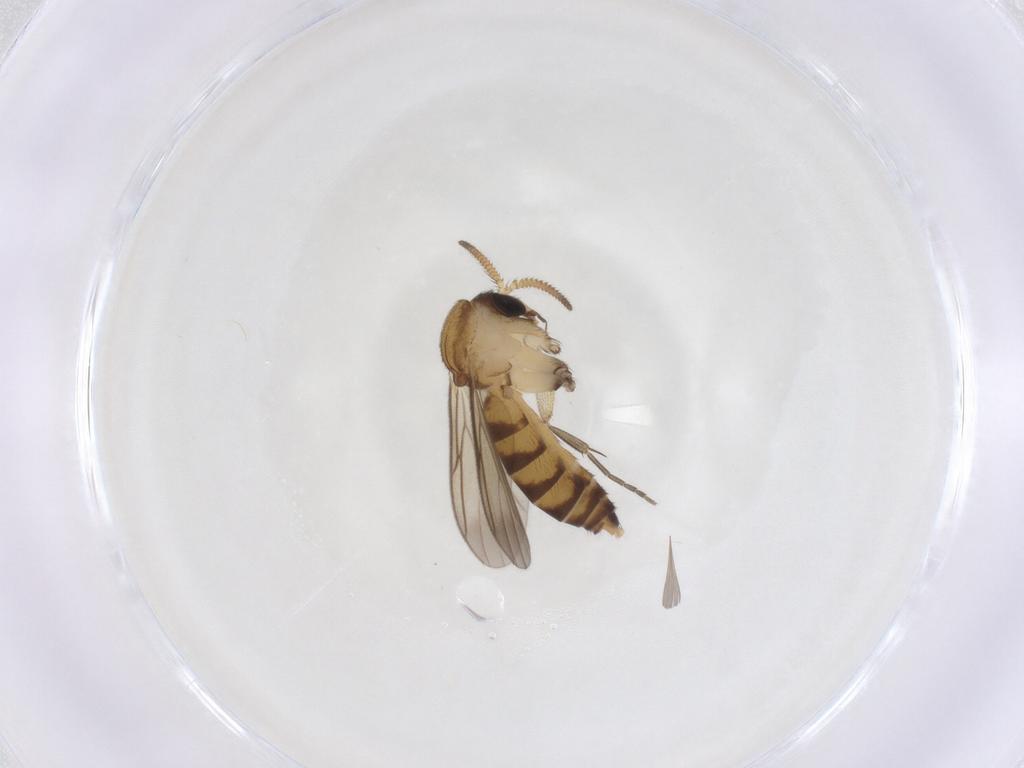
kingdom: Animalia
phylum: Arthropoda
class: Insecta
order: Diptera
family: Mycetophilidae
